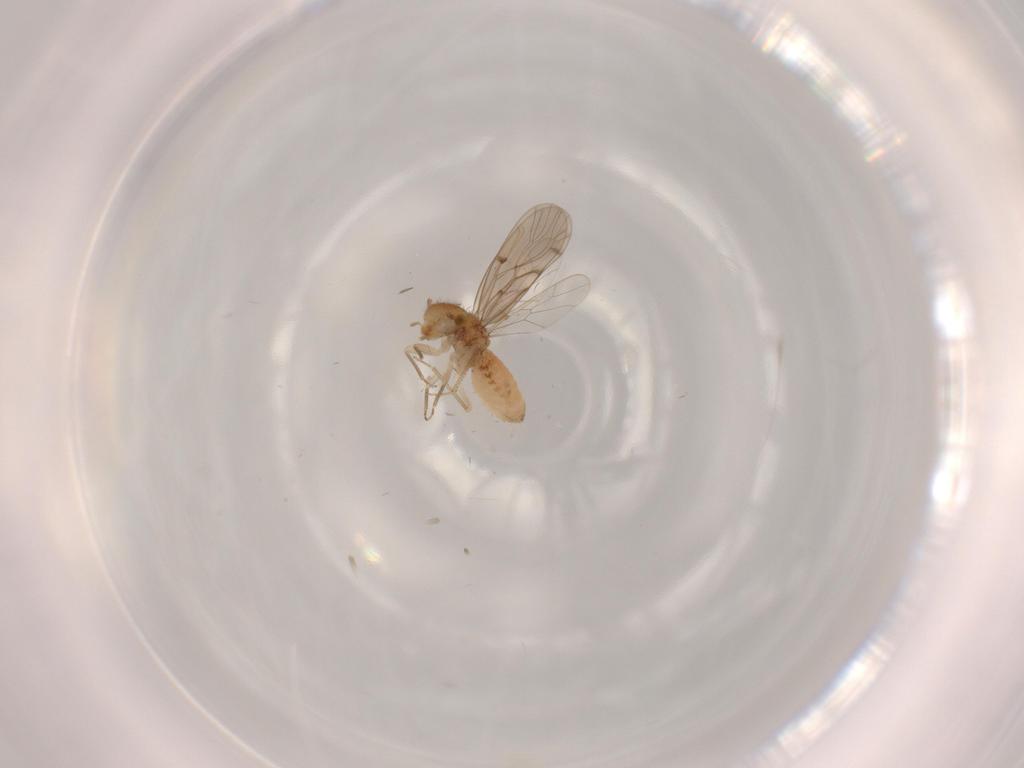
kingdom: Animalia
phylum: Arthropoda
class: Insecta
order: Psocodea
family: Ectopsocidae
